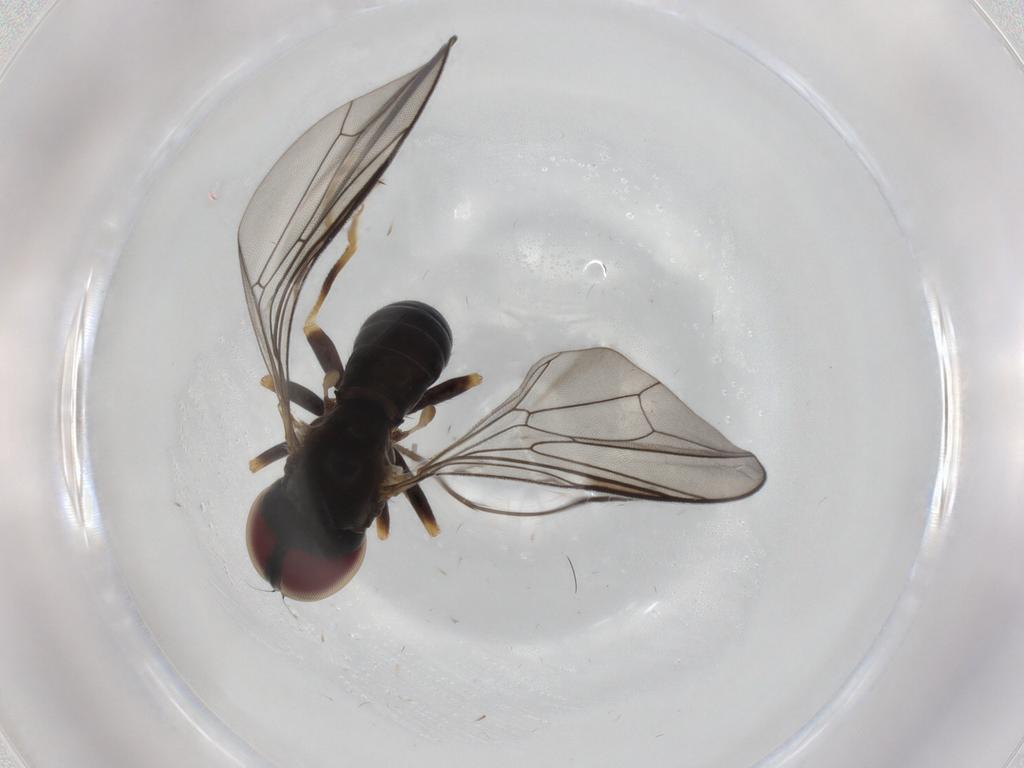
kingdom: Animalia
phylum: Arthropoda
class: Insecta
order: Diptera
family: Pipunculidae
